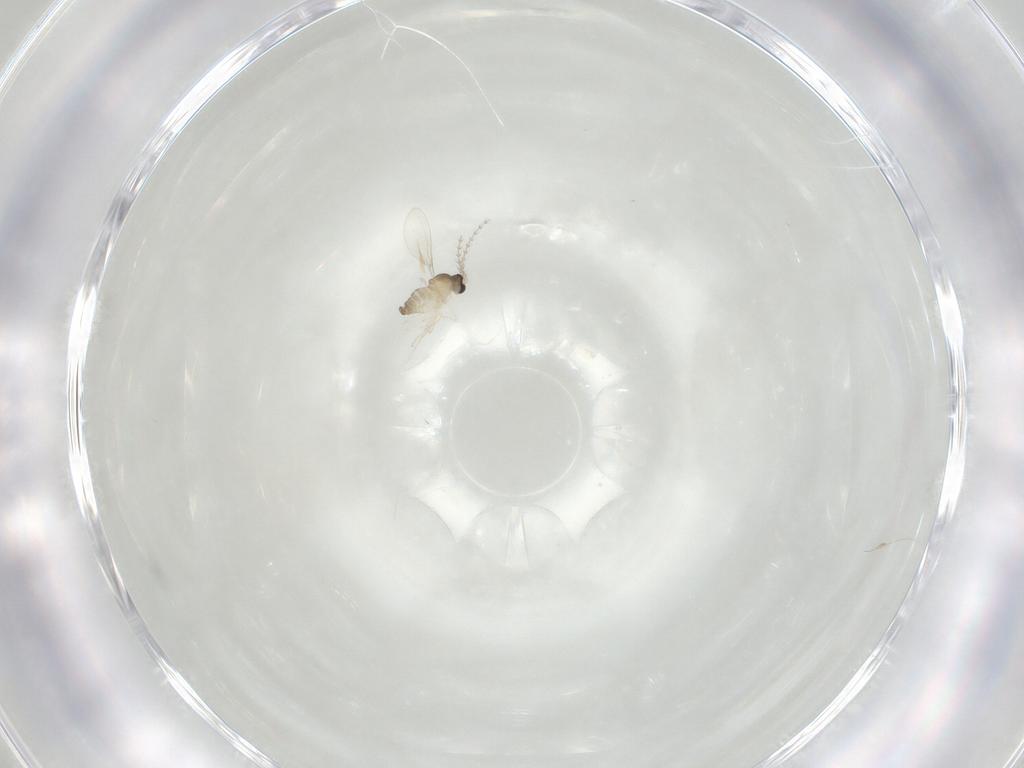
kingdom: Animalia
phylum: Arthropoda
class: Insecta
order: Diptera
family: Cecidomyiidae
